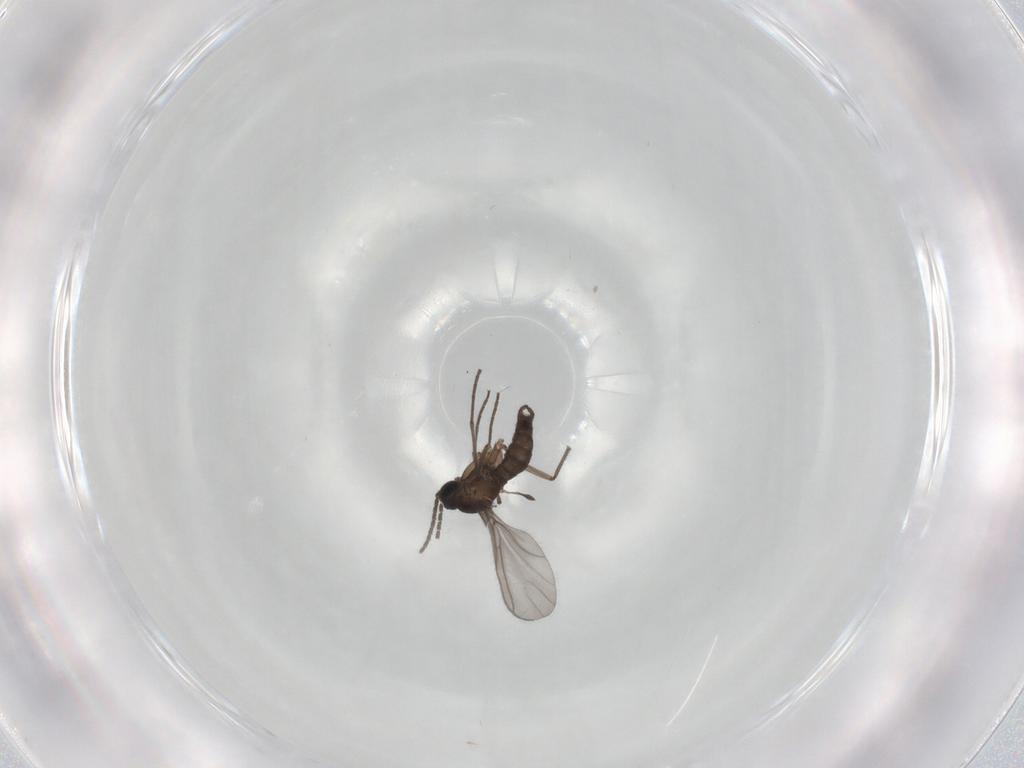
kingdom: Animalia
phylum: Arthropoda
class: Insecta
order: Diptera
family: Sciaridae
